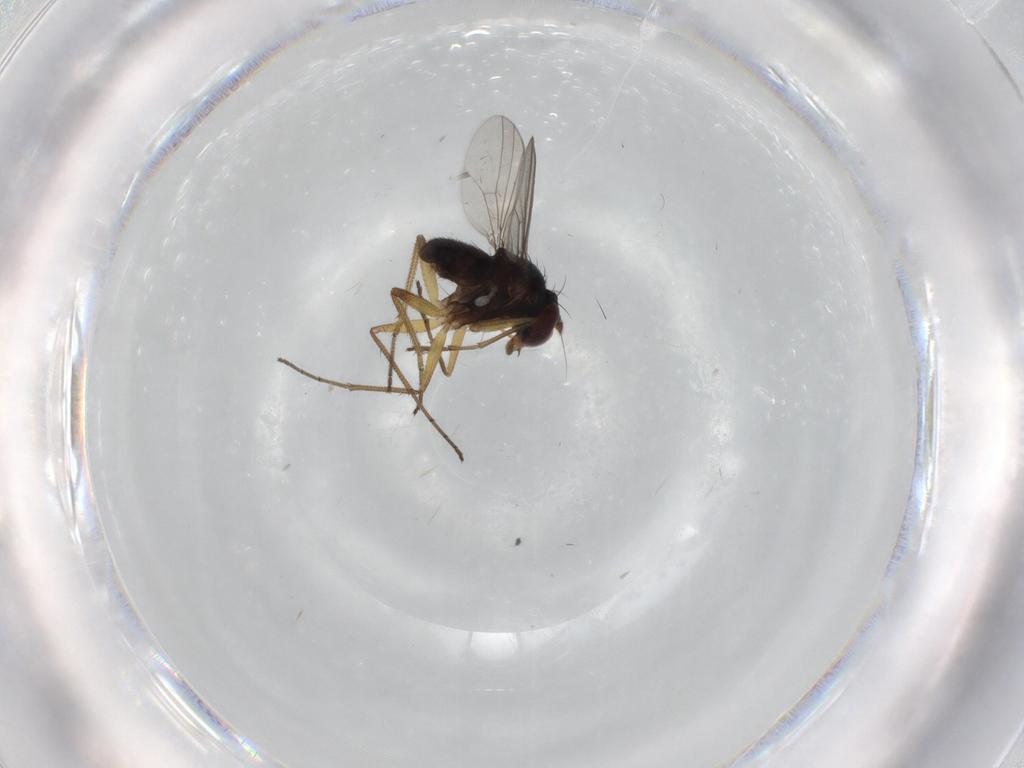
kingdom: Animalia
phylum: Arthropoda
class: Insecta
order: Diptera
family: Dolichopodidae
